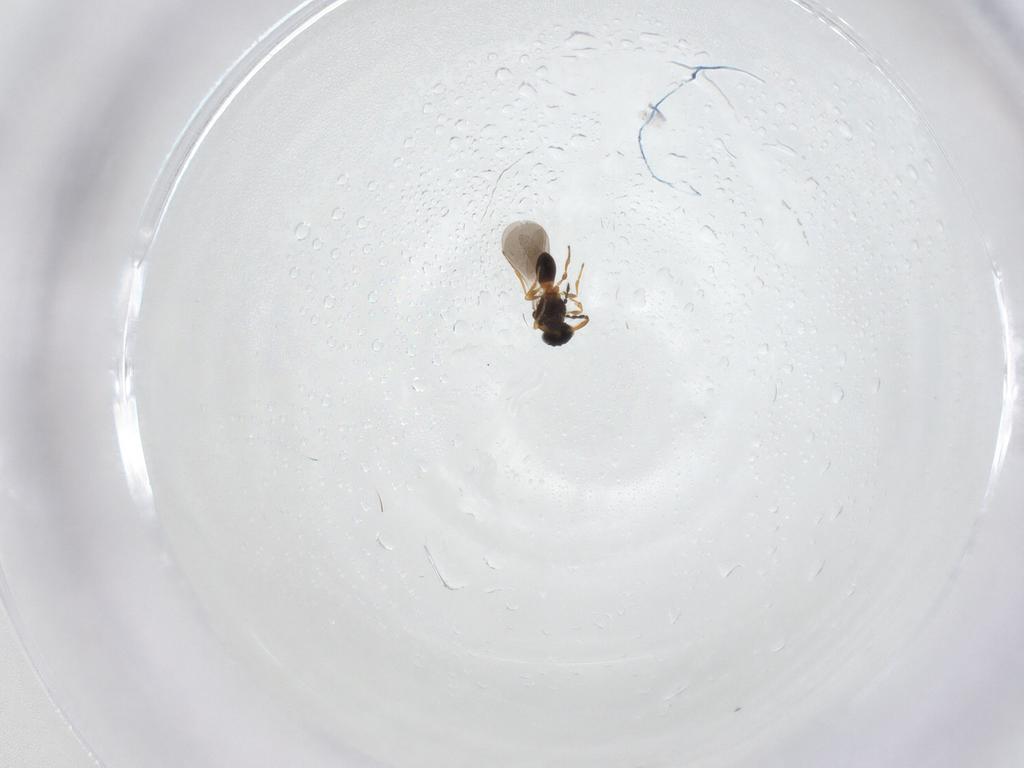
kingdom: Animalia
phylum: Arthropoda
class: Insecta
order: Hymenoptera
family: Platygastridae
